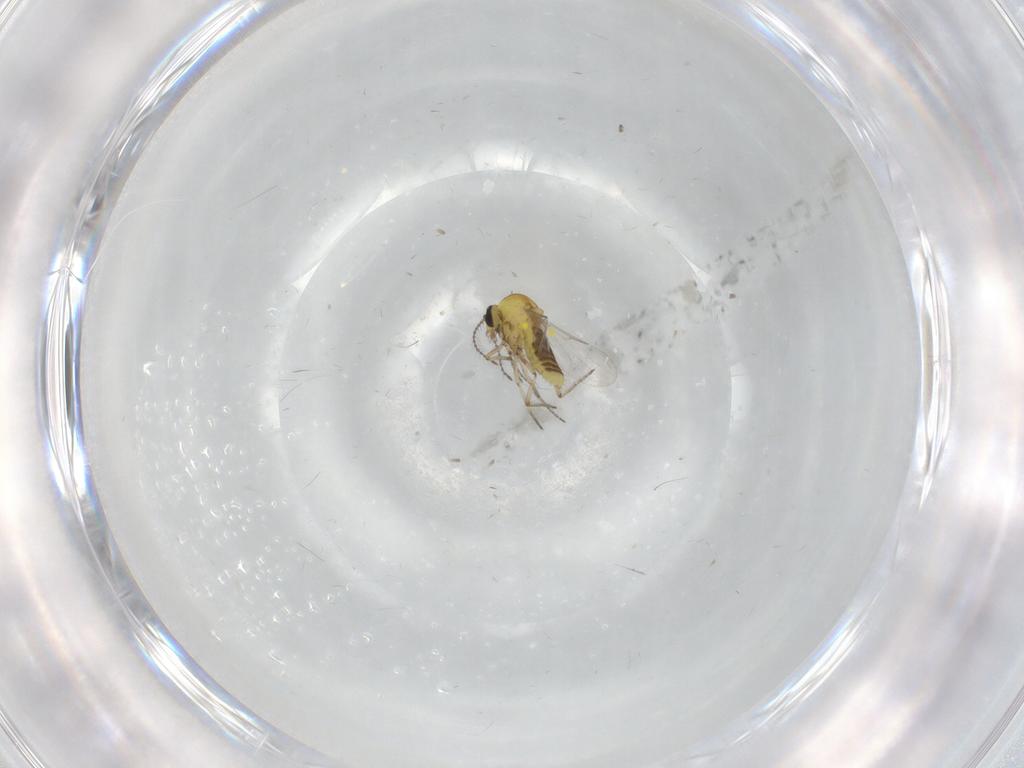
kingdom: Animalia
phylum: Arthropoda
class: Insecta
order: Diptera
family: Ceratopogonidae
